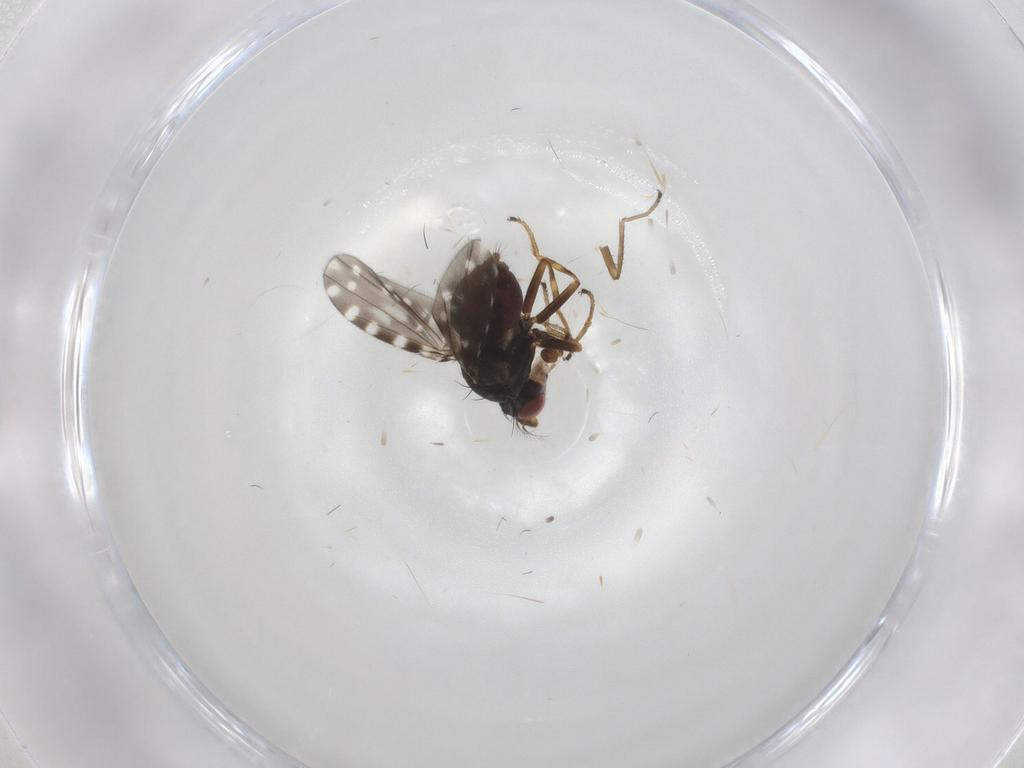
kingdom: Animalia
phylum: Arthropoda
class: Insecta
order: Diptera
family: Ephydridae
